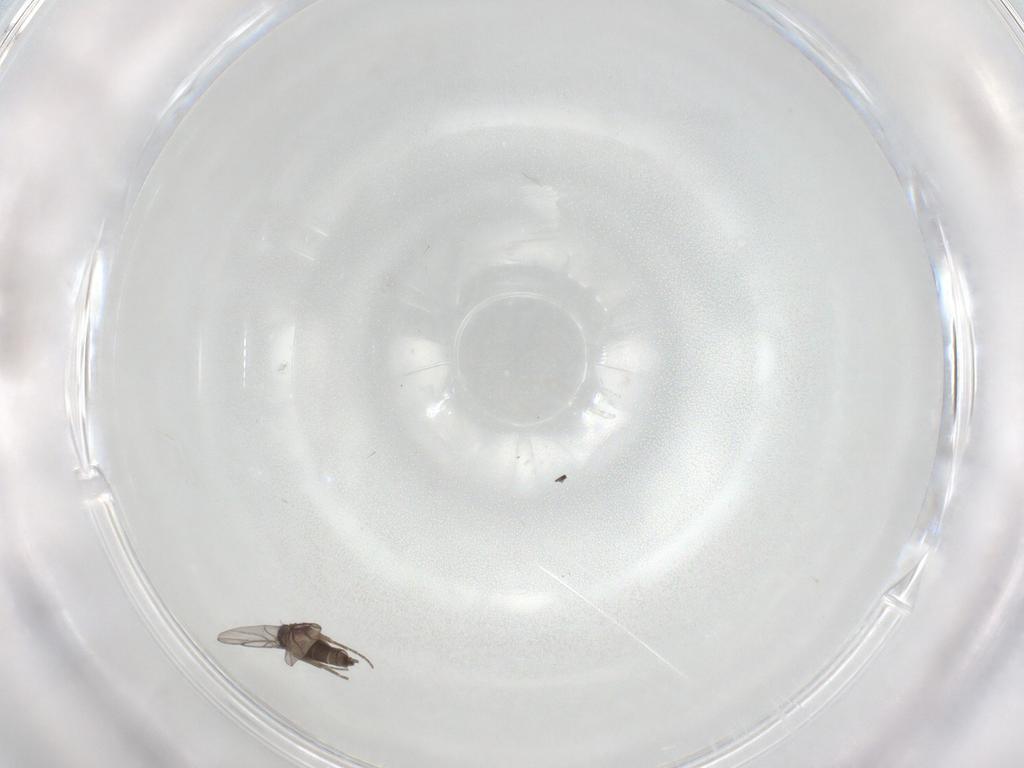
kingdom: Animalia
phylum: Arthropoda
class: Insecta
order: Diptera
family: Phoridae
